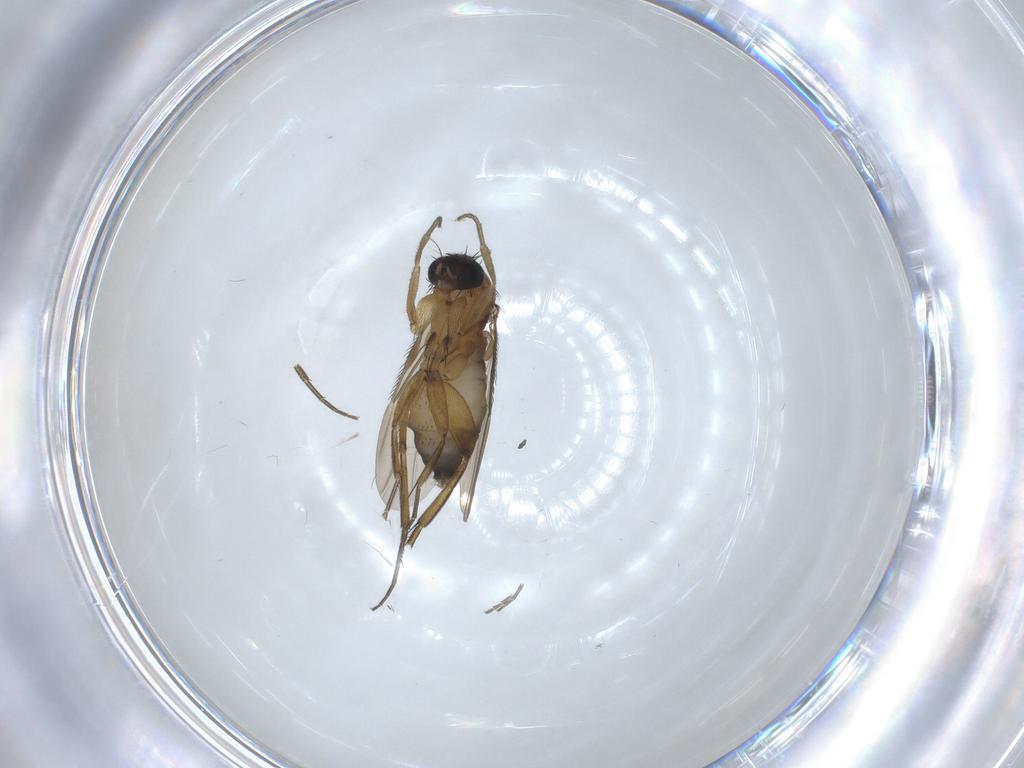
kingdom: Animalia
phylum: Arthropoda
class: Insecta
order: Diptera
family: Phoridae
